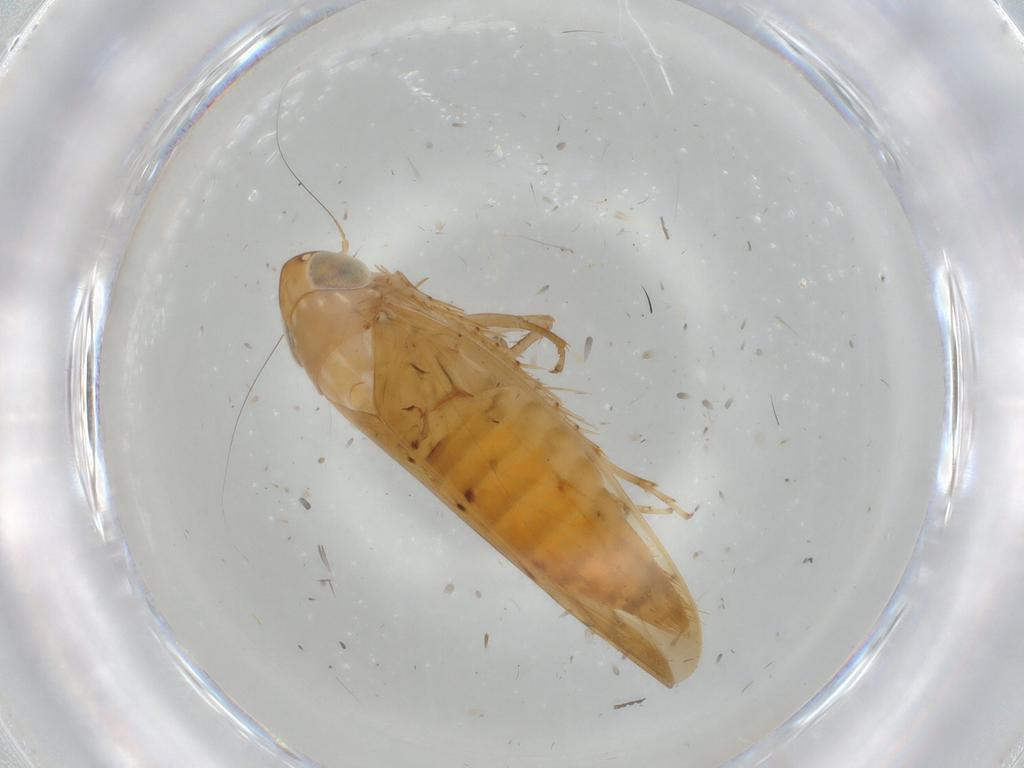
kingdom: Animalia
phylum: Arthropoda
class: Insecta
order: Hemiptera
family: Cicadellidae
